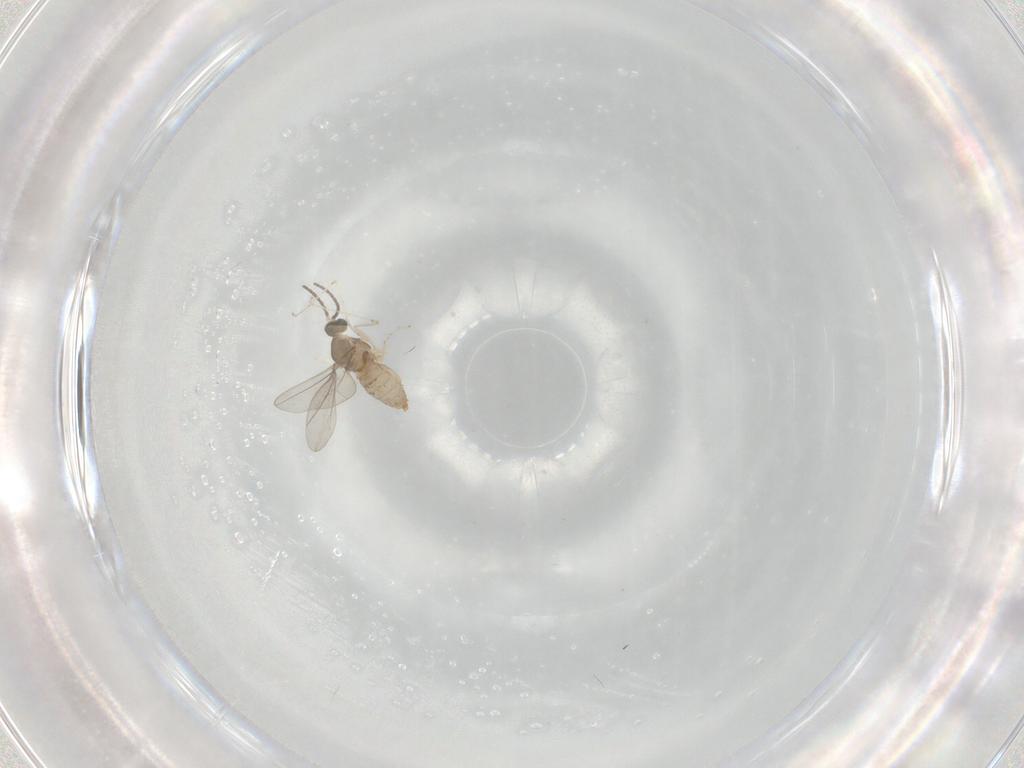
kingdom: Animalia
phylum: Arthropoda
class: Insecta
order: Diptera
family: Cecidomyiidae
